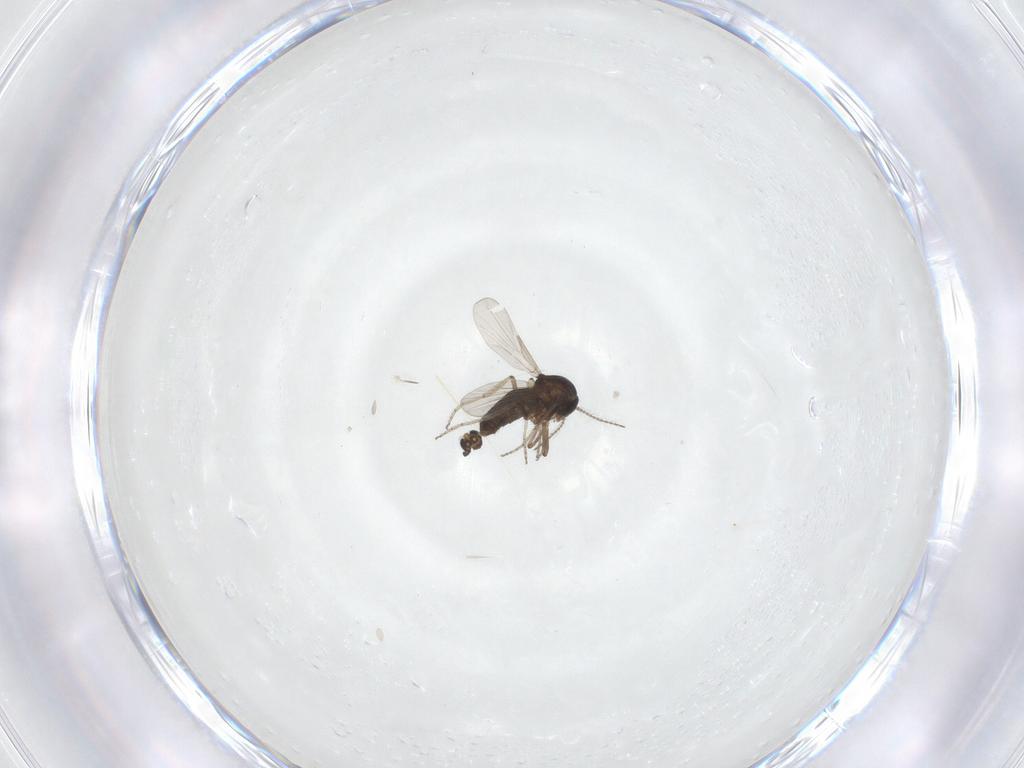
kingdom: Animalia
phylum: Arthropoda
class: Insecta
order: Diptera
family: Ceratopogonidae
